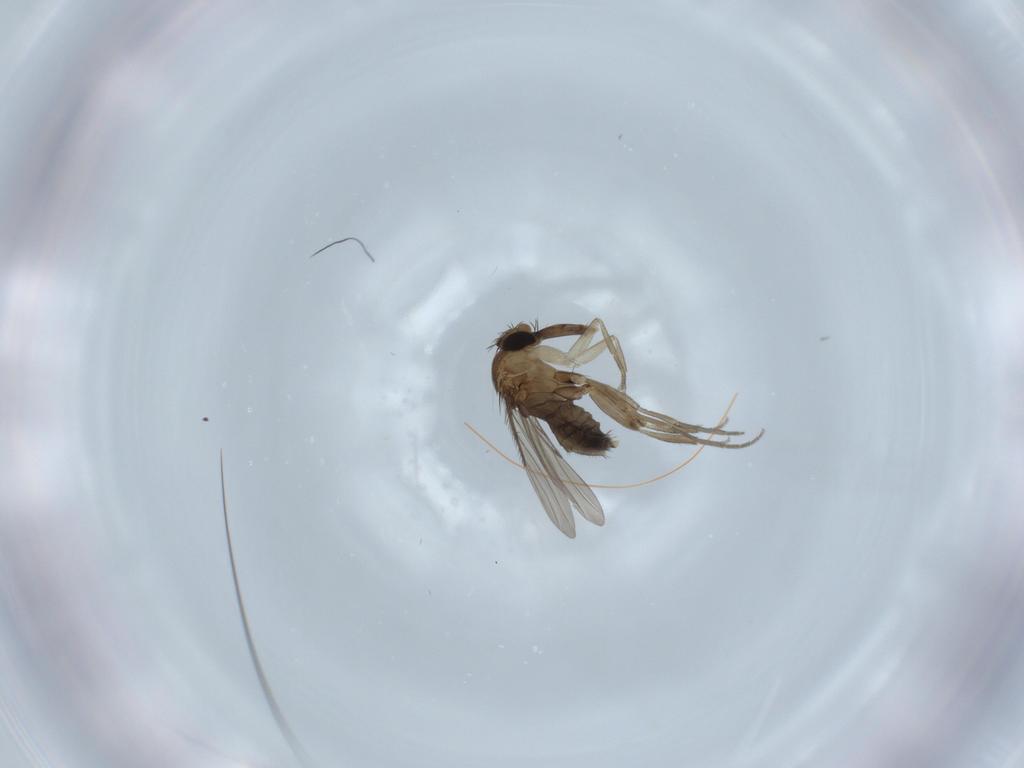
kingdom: Animalia
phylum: Arthropoda
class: Insecta
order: Diptera
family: Phoridae
